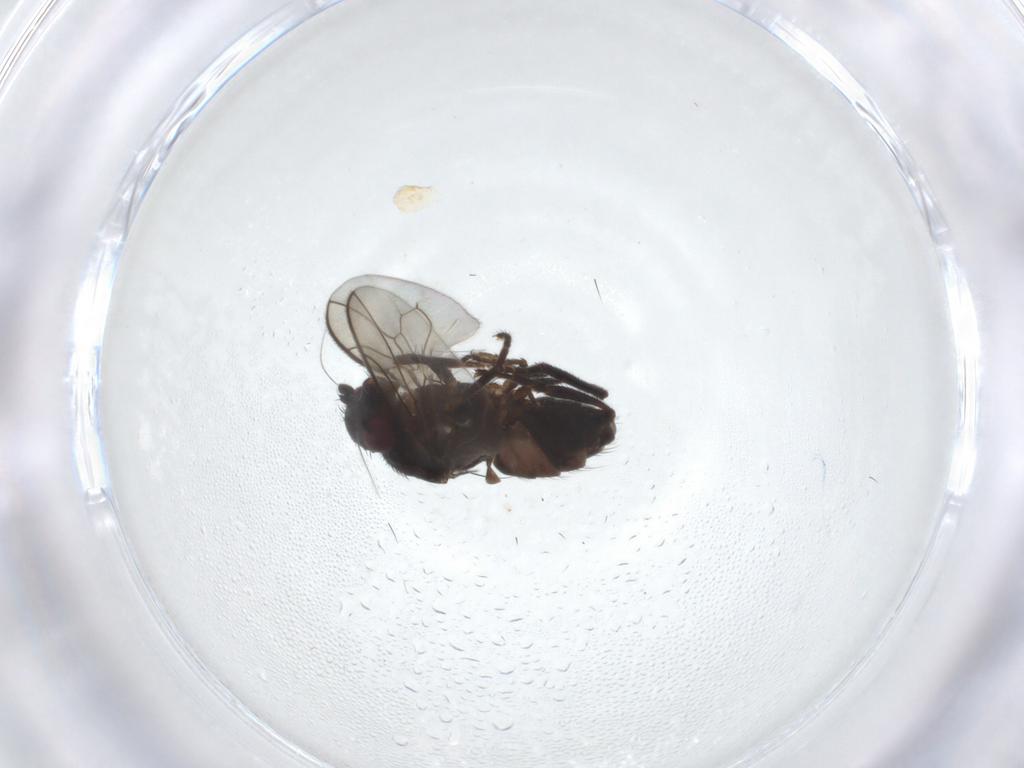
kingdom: Animalia
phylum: Arthropoda
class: Insecta
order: Diptera
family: Sphaeroceridae
